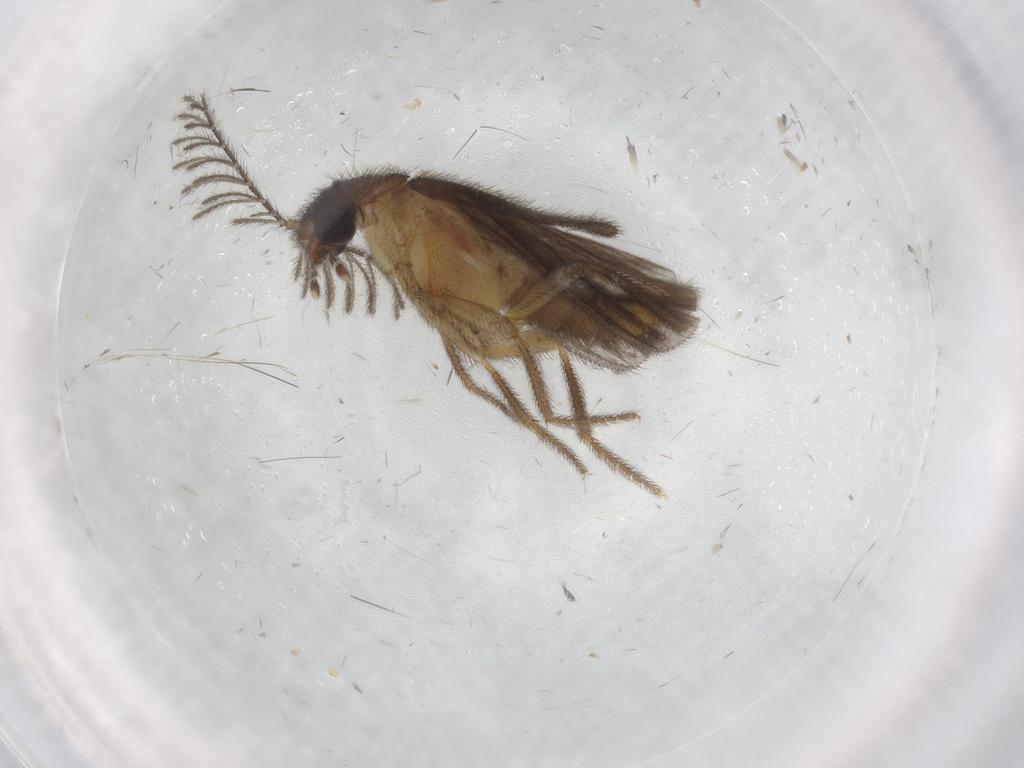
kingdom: Animalia
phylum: Arthropoda
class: Insecta
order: Coleoptera
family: Phengodidae
